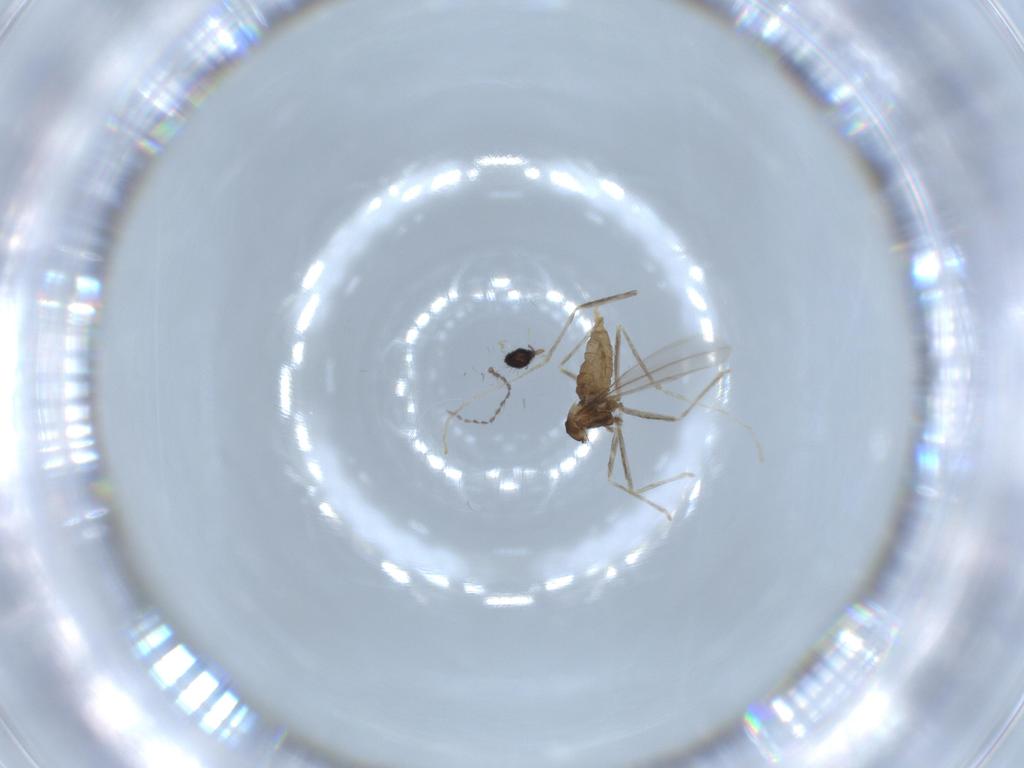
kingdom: Animalia
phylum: Arthropoda
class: Insecta
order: Diptera
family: Cecidomyiidae
